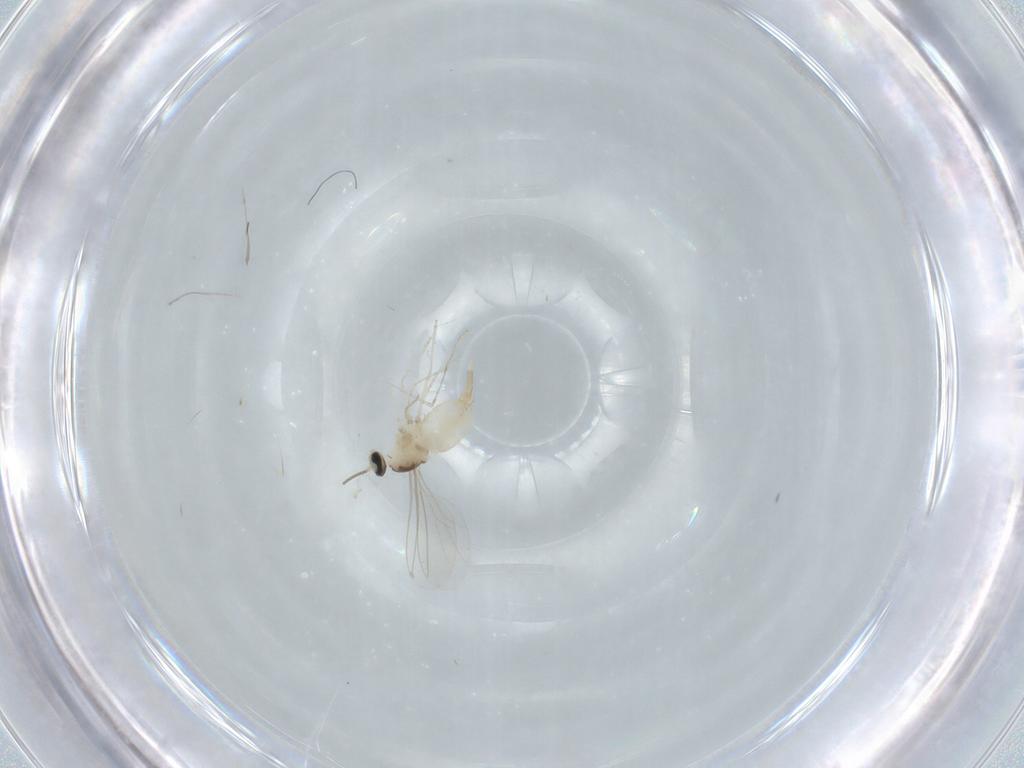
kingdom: Animalia
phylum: Arthropoda
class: Insecta
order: Diptera
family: Cecidomyiidae
